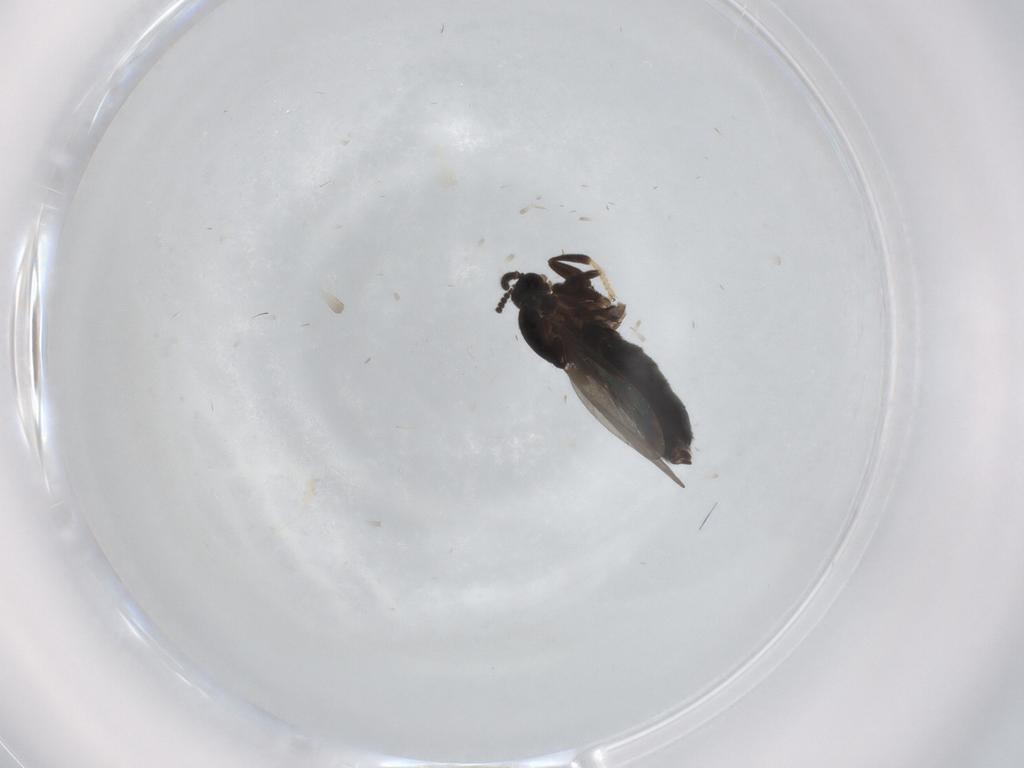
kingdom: Animalia
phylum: Arthropoda
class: Insecta
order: Diptera
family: Scatopsidae
